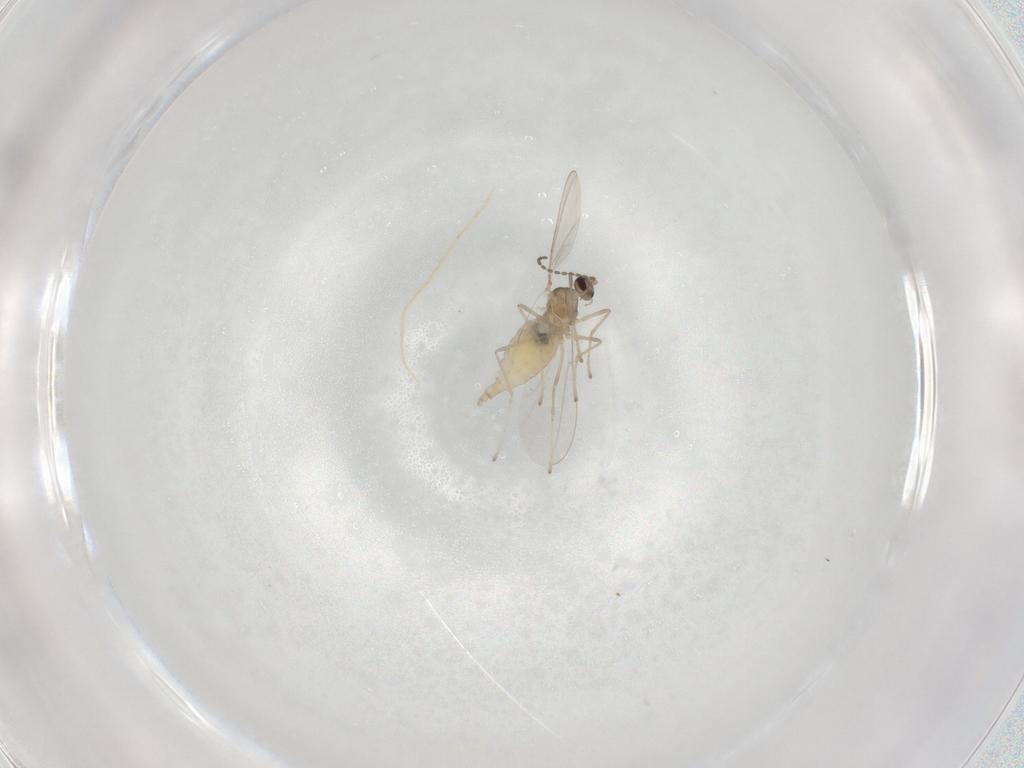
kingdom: Animalia
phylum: Arthropoda
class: Insecta
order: Diptera
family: Cecidomyiidae
